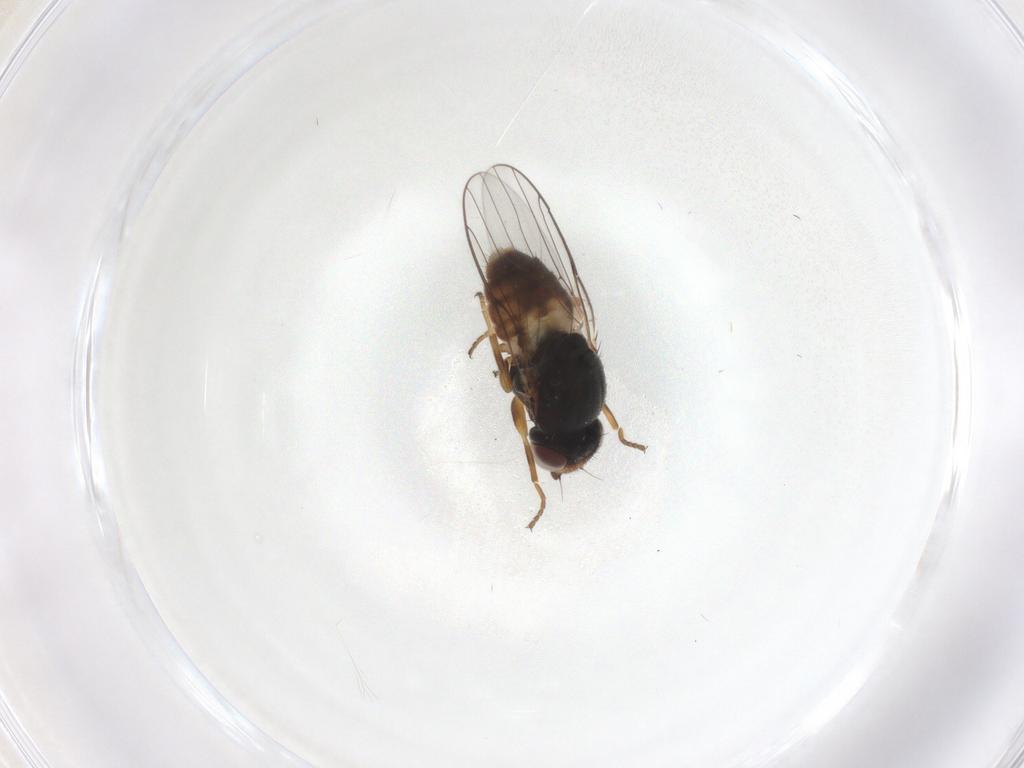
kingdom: Animalia
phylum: Arthropoda
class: Insecta
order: Diptera
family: Chloropidae
